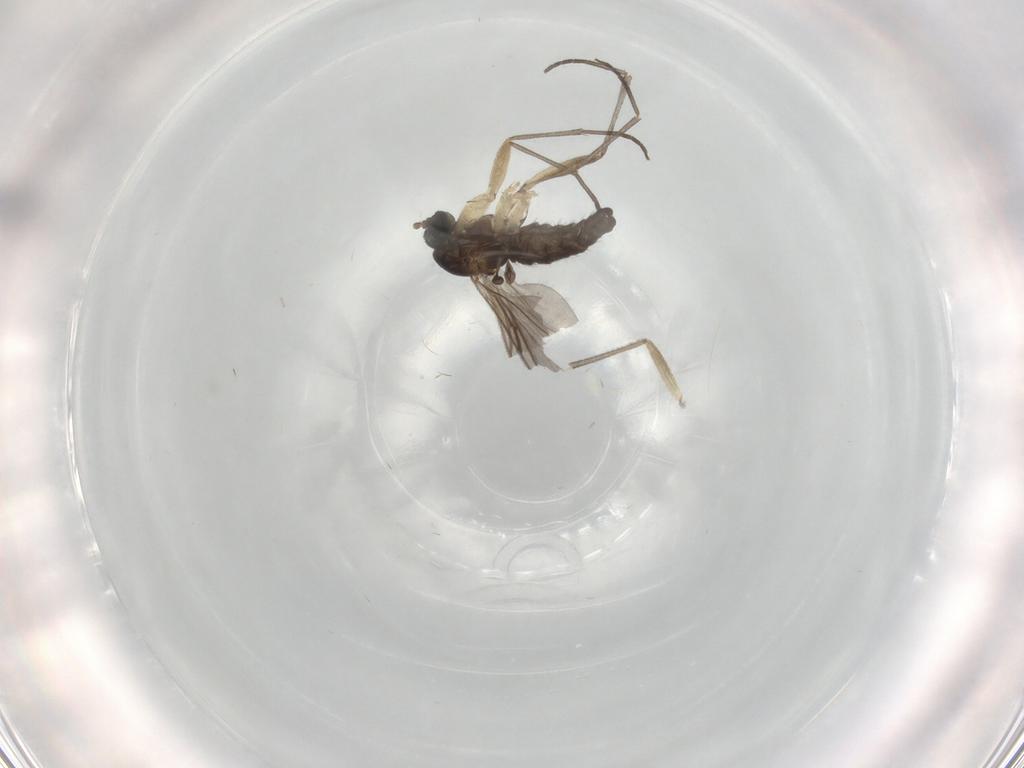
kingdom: Animalia
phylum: Arthropoda
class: Insecta
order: Diptera
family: Sciaridae
